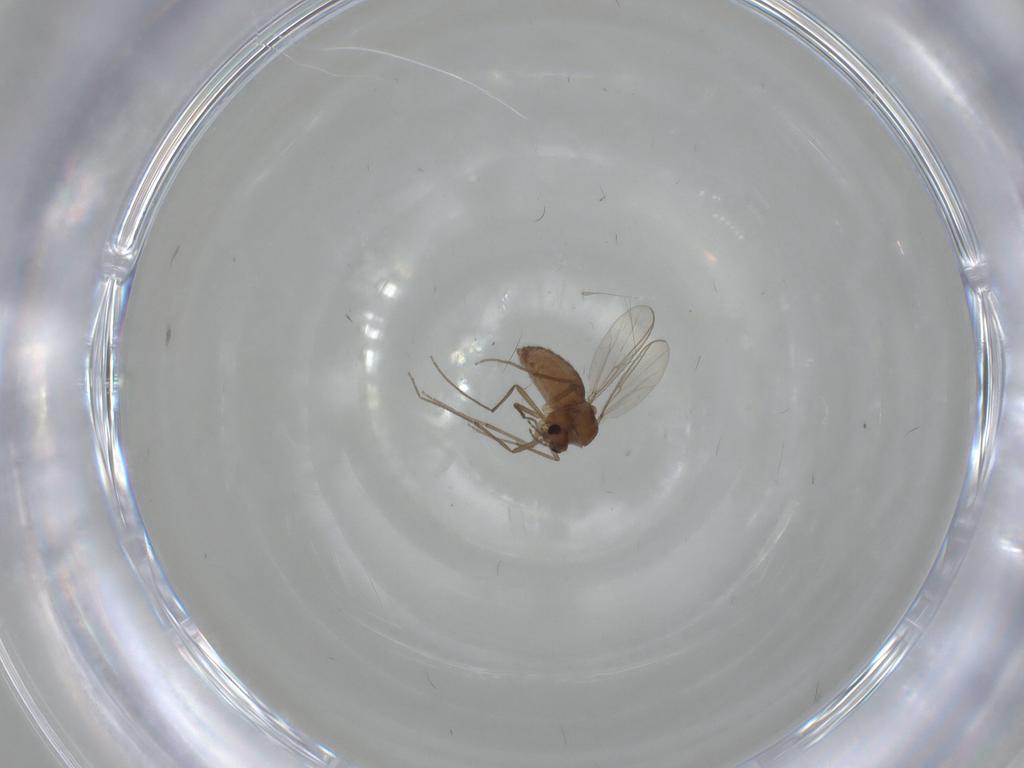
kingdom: Animalia
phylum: Arthropoda
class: Insecta
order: Diptera
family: Chironomidae
